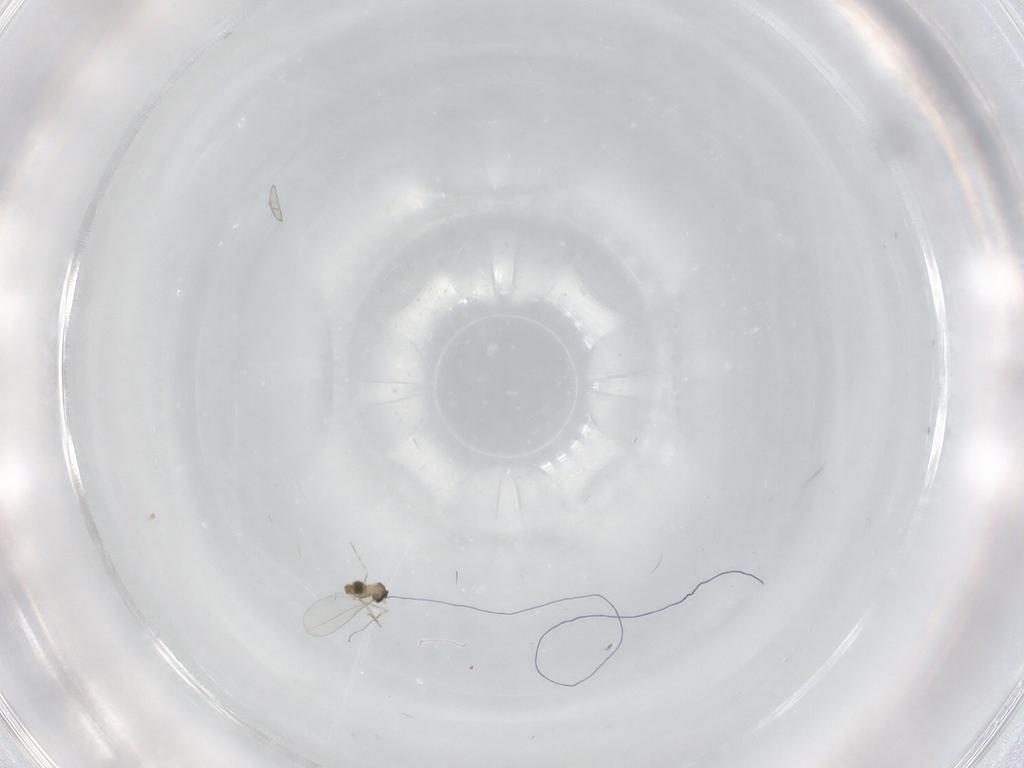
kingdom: Animalia
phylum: Arthropoda
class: Insecta
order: Diptera
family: Cecidomyiidae
